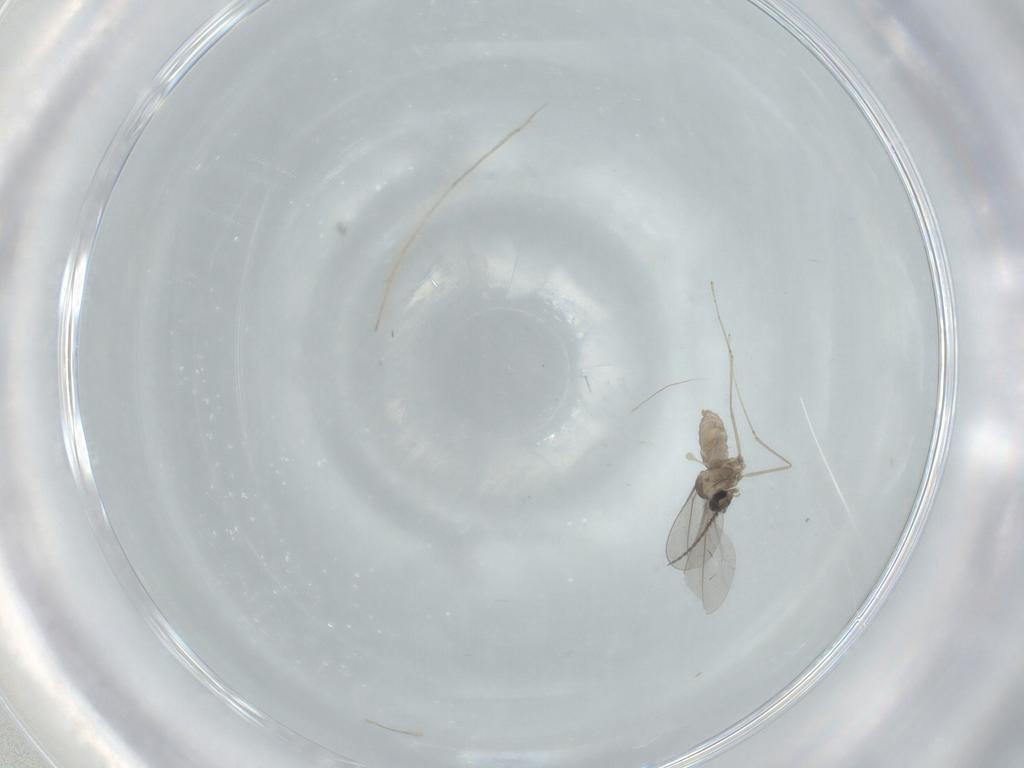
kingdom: Animalia
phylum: Arthropoda
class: Insecta
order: Diptera
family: Cecidomyiidae
